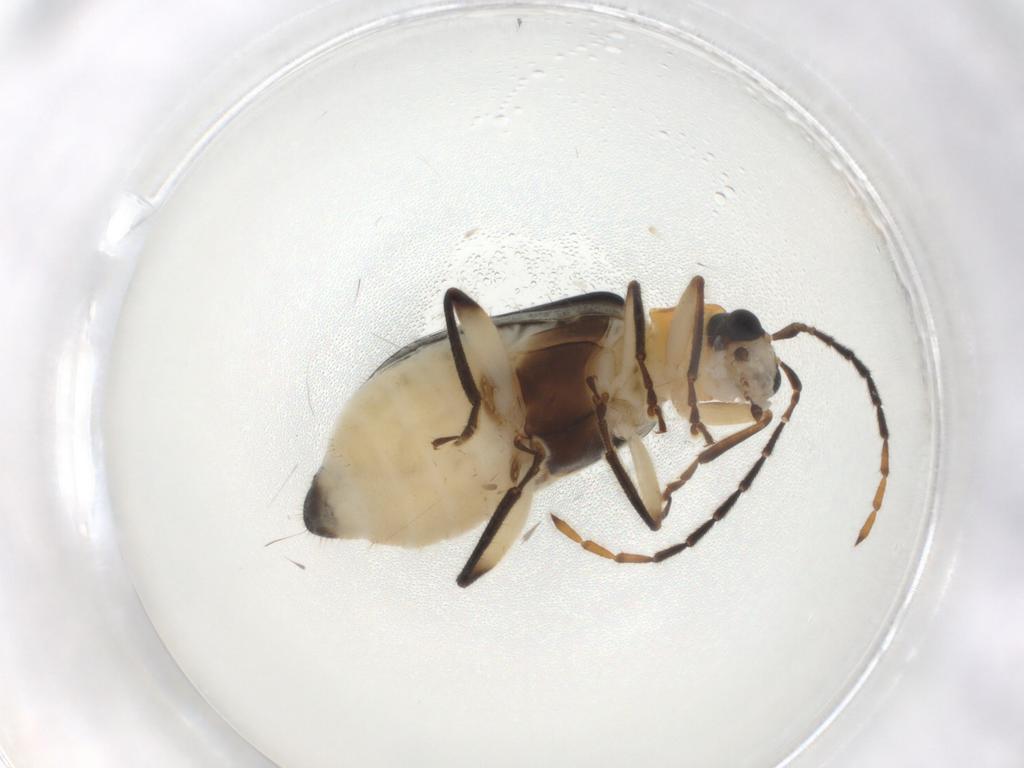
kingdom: Animalia
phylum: Arthropoda
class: Insecta
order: Coleoptera
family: Chrysomelidae
